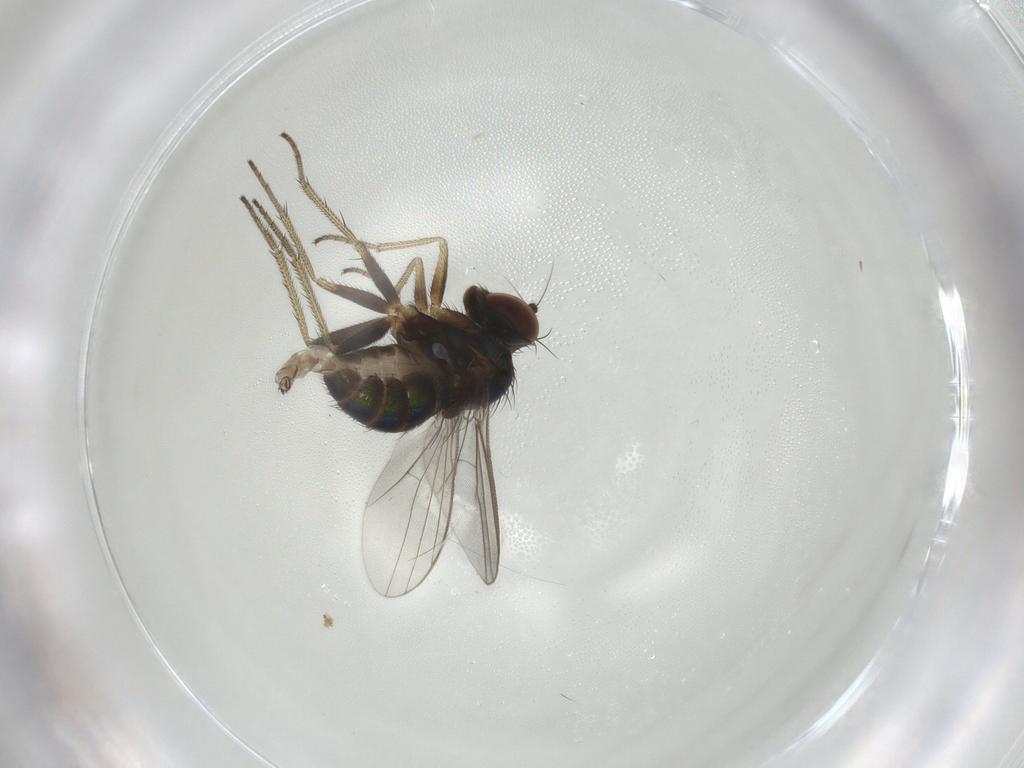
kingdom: Animalia
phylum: Arthropoda
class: Insecta
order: Diptera
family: Dolichopodidae
